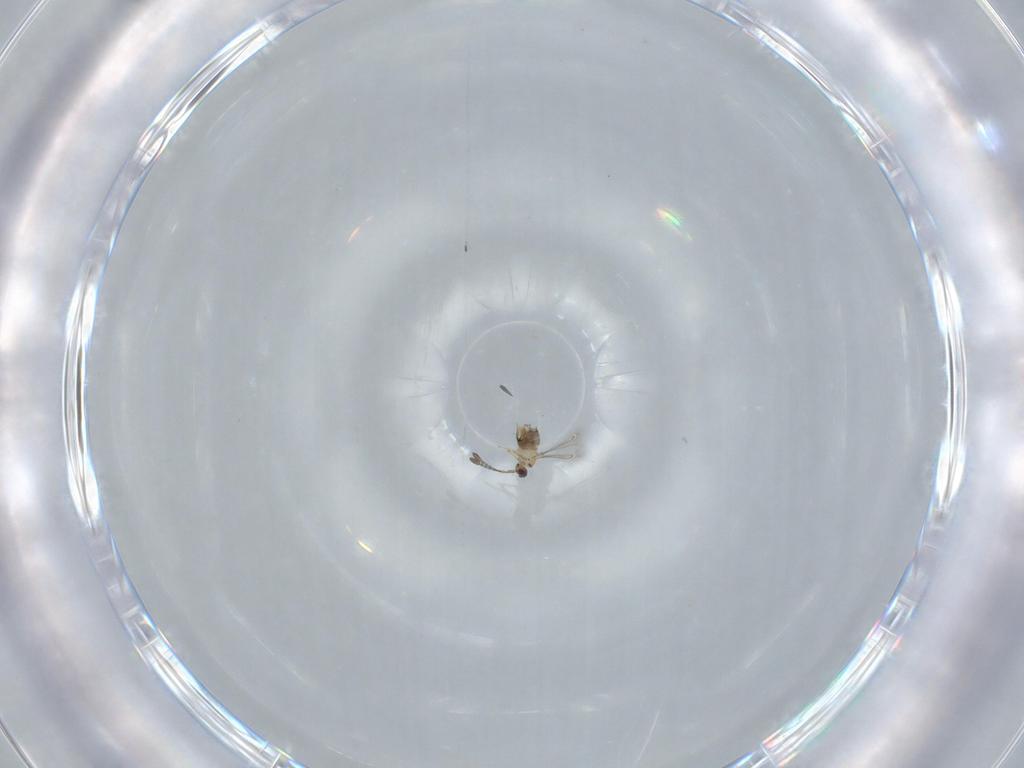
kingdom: Animalia
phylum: Arthropoda
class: Insecta
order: Hymenoptera
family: Mymaridae
